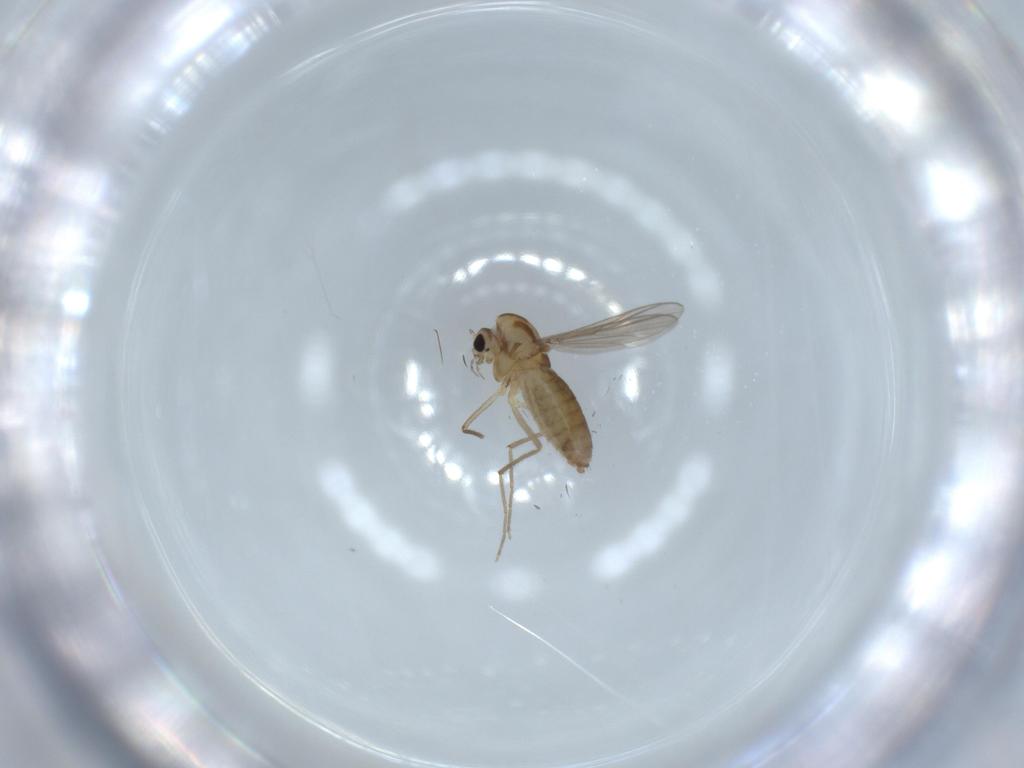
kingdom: Animalia
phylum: Arthropoda
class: Insecta
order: Diptera
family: Chironomidae
